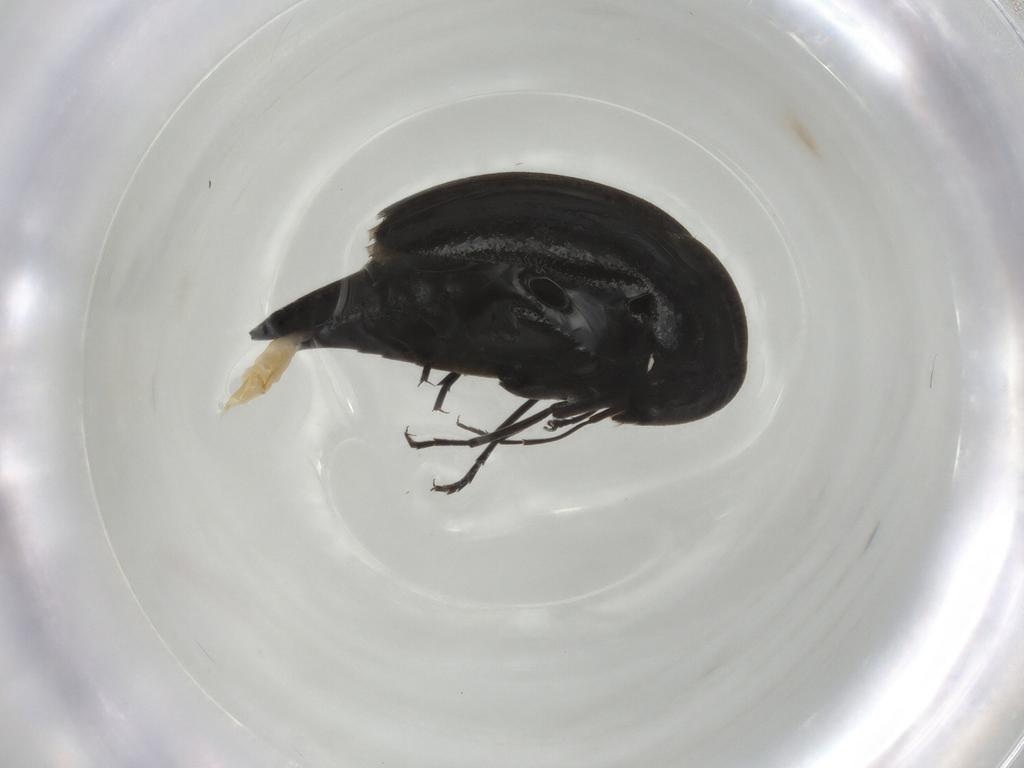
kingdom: Animalia
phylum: Arthropoda
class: Insecta
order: Coleoptera
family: Mordellidae
